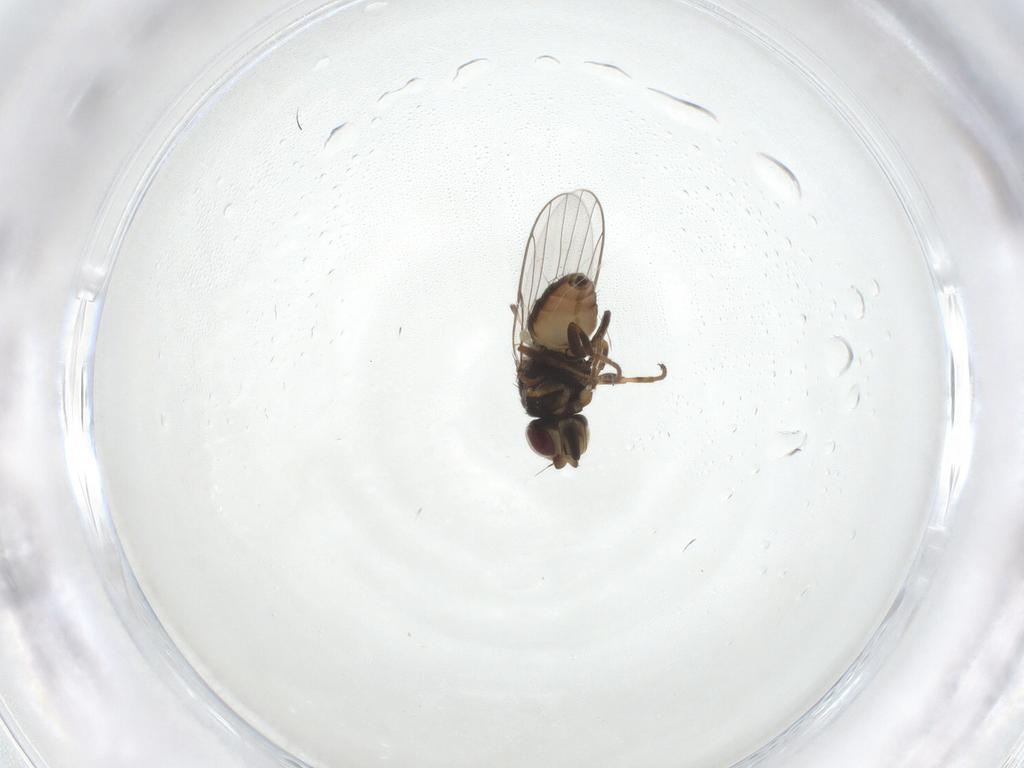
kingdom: Animalia
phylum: Arthropoda
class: Insecta
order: Diptera
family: Chloropidae
